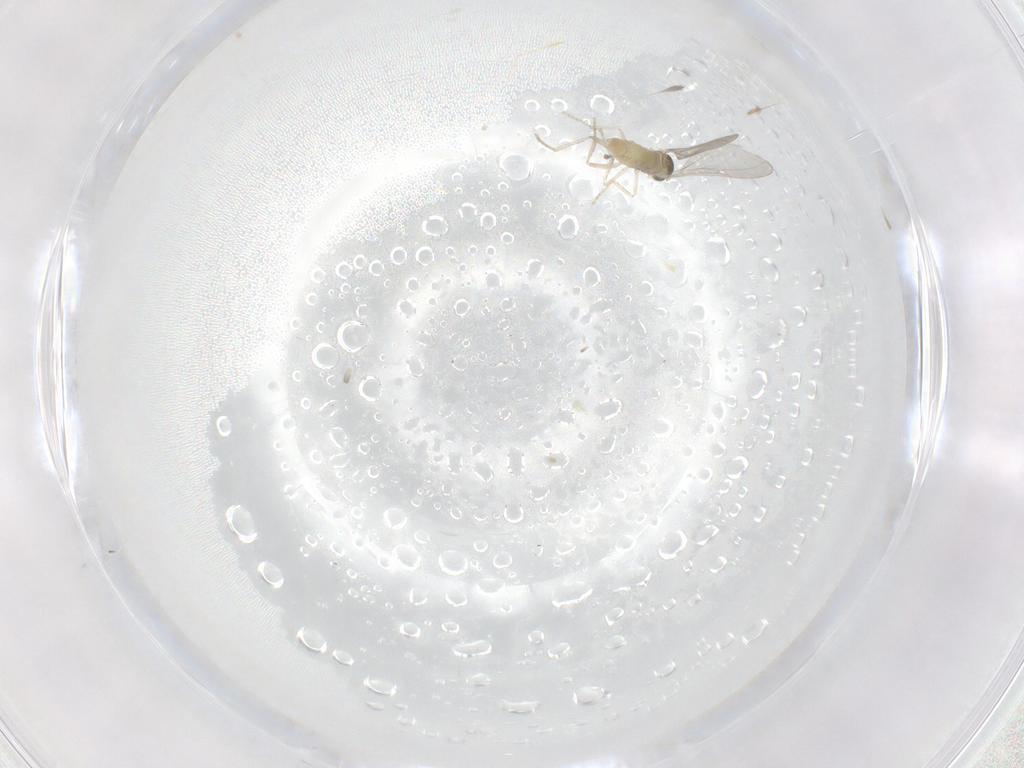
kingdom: Animalia
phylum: Arthropoda
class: Insecta
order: Diptera
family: Cecidomyiidae
